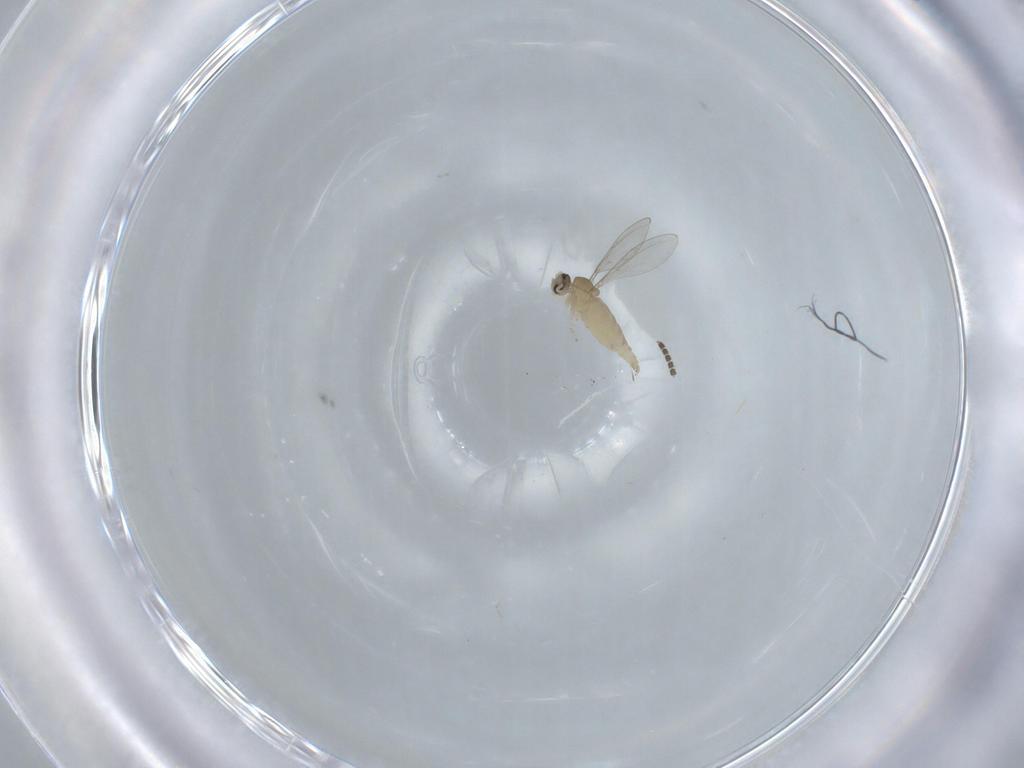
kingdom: Animalia
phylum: Arthropoda
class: Insecta
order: Diptera
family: Cecidomyiidae
